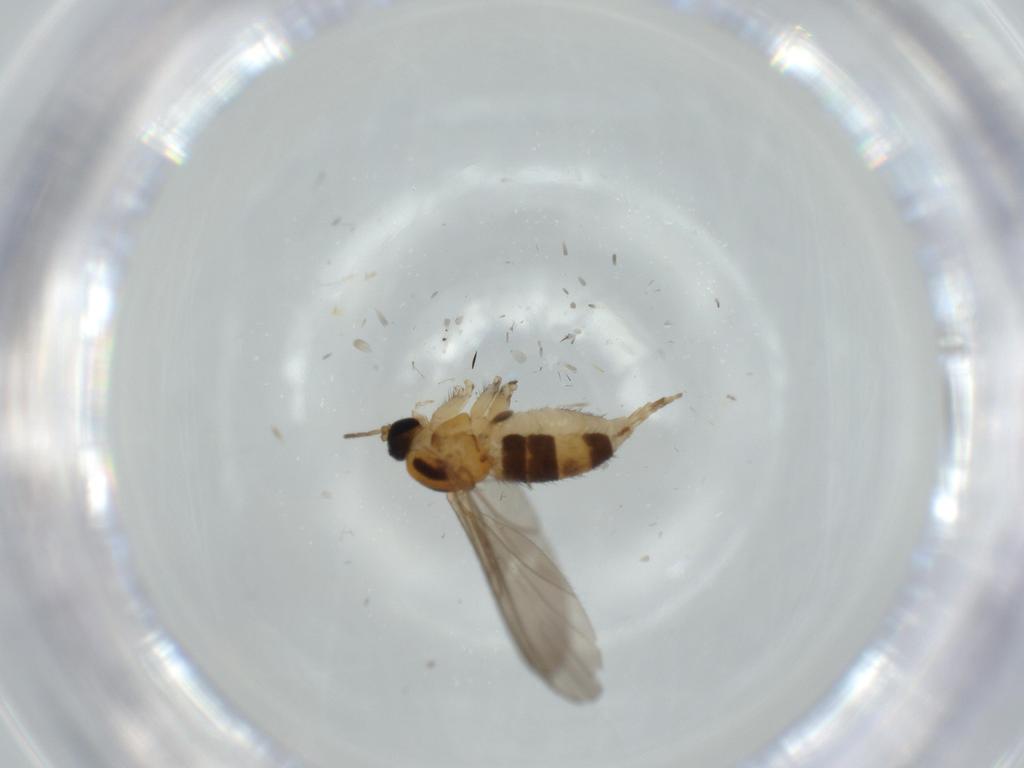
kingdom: Animalia
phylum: Arthropoda
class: Insecta
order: Diptera
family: Chironomidae
